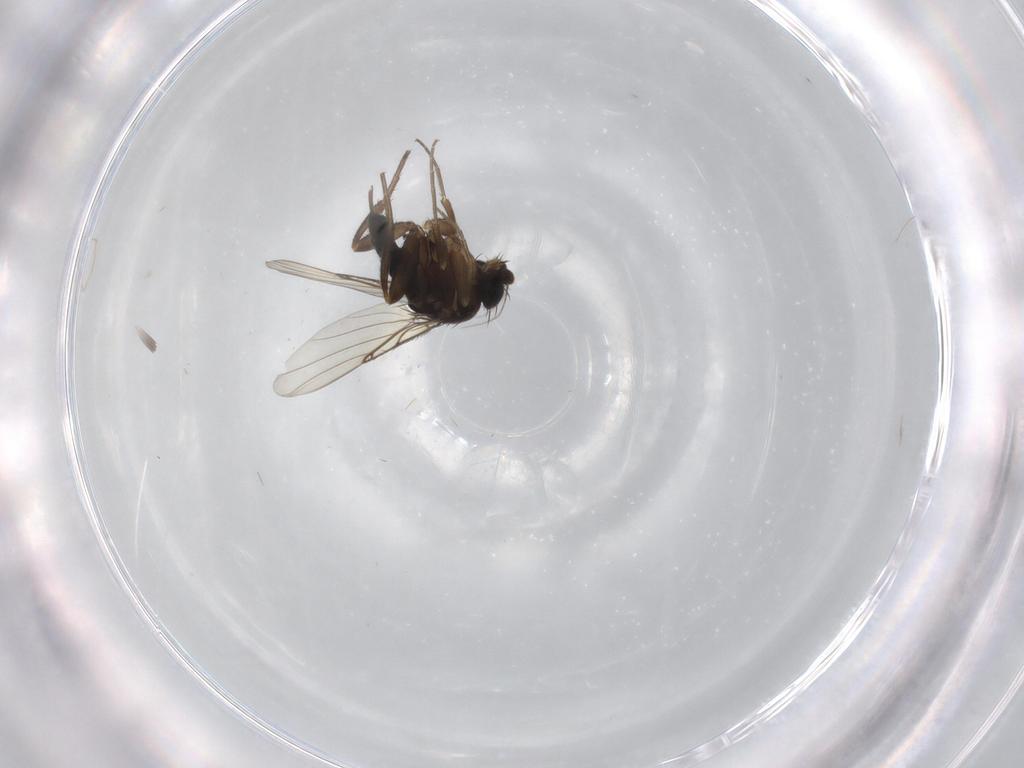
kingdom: Animalia
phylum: Arthropoda
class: Insecta
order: Diptera
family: Phoridae
